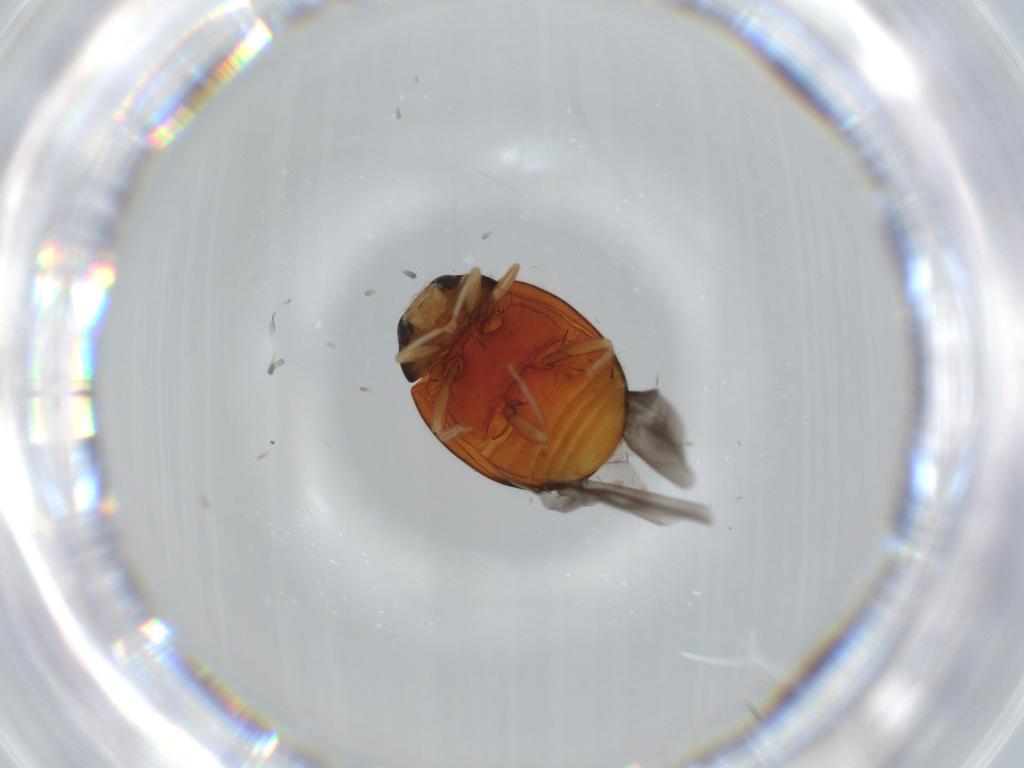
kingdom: Animalia
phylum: Arthropoda
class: Insecta
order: Coleoptera
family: Coccinellidae
